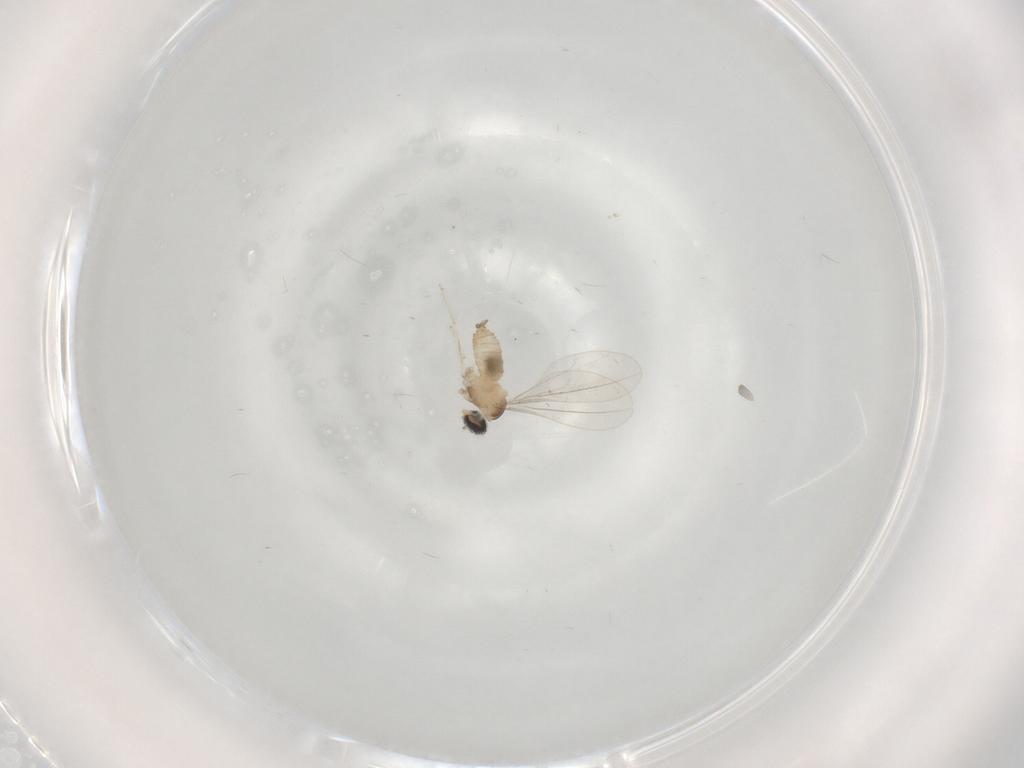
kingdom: Animalia
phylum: Arthropoda
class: Insecta
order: Diptera
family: Cecidomyiidae
